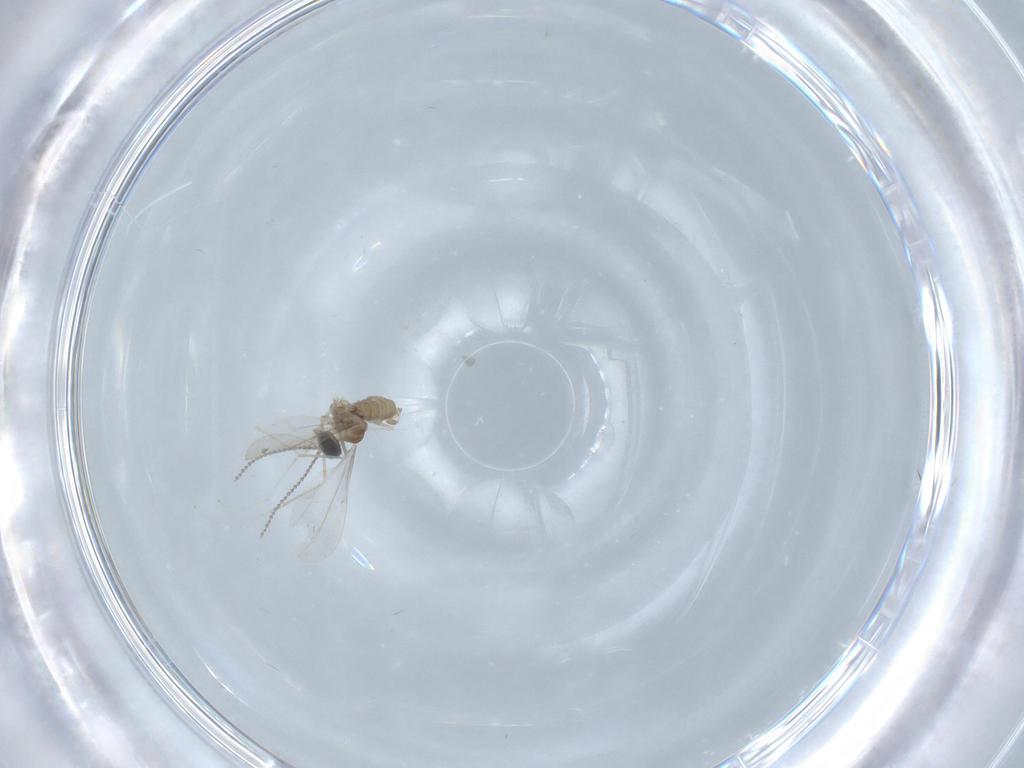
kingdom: Animalia
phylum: Arthropoda
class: Insecta
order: Diptera
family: Cecidomyiidae
